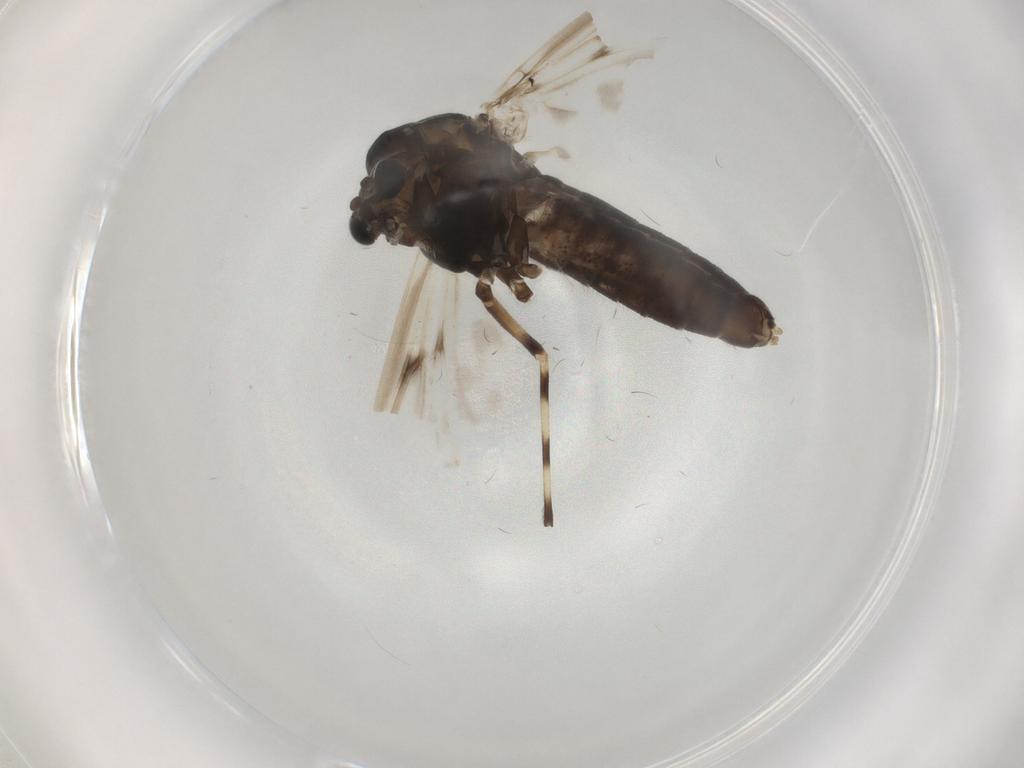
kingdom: Animalia
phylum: Arthropoda
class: Insecta
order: Diptera
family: Chironomidae
